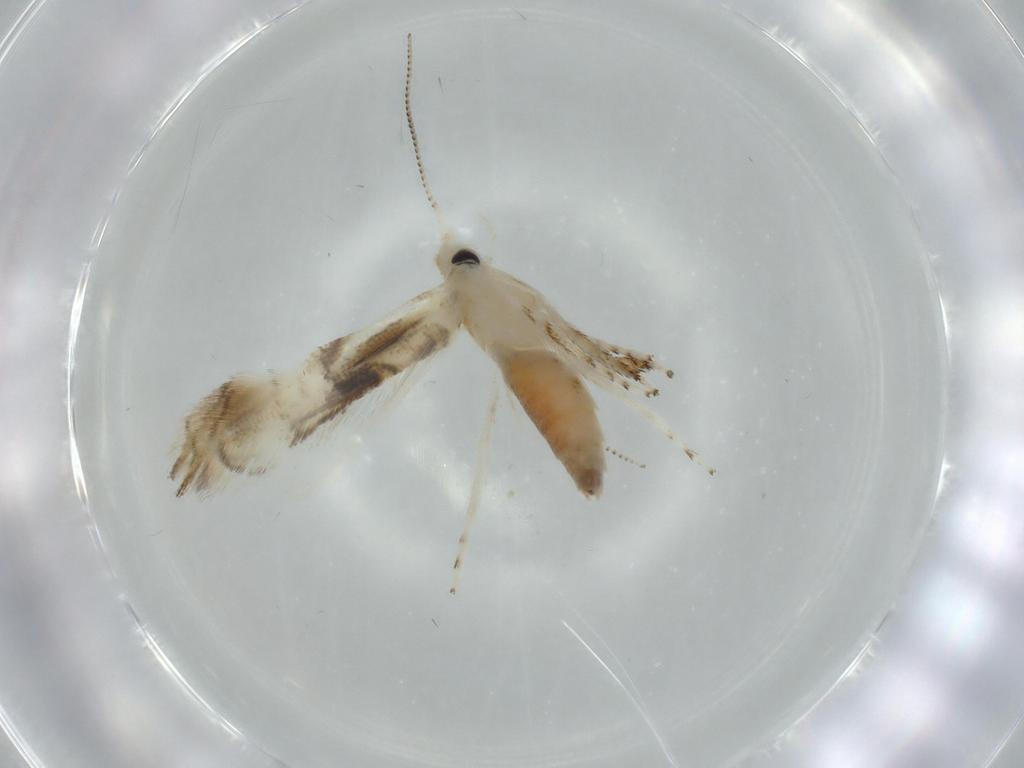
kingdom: Animalia
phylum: Arthropoda
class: Insecta
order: Lepidoptera
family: Gracillariidae
